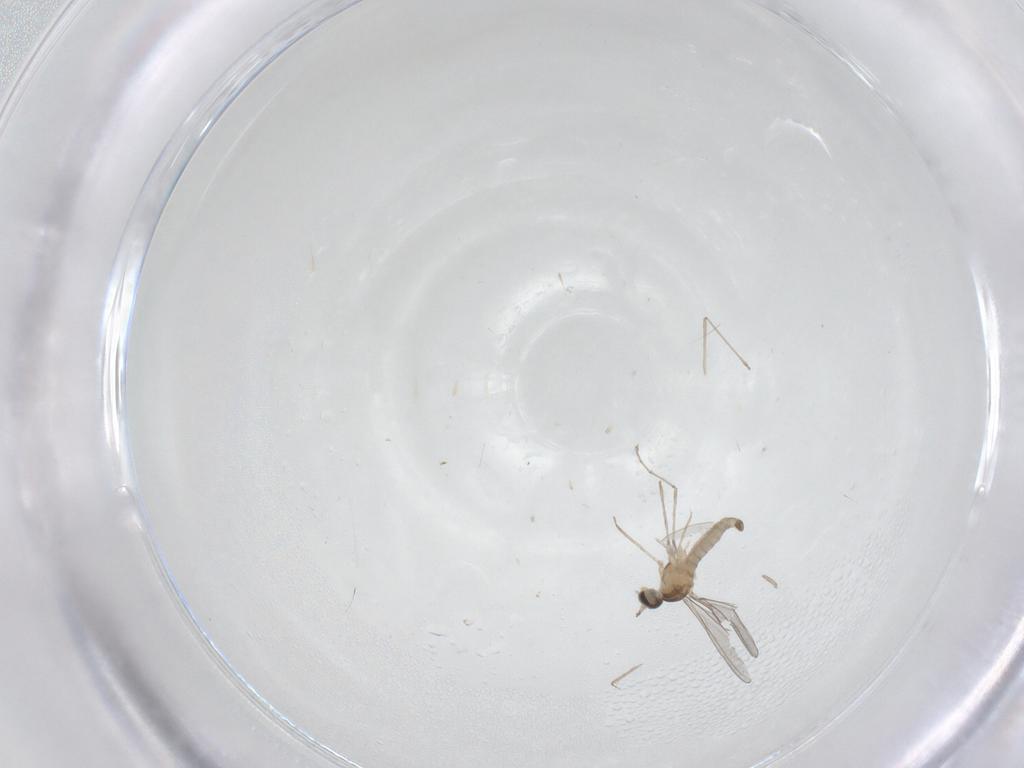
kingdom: Animalia
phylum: Arthropoda
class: Insecta
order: Diptera
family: Cecidomyiidae
